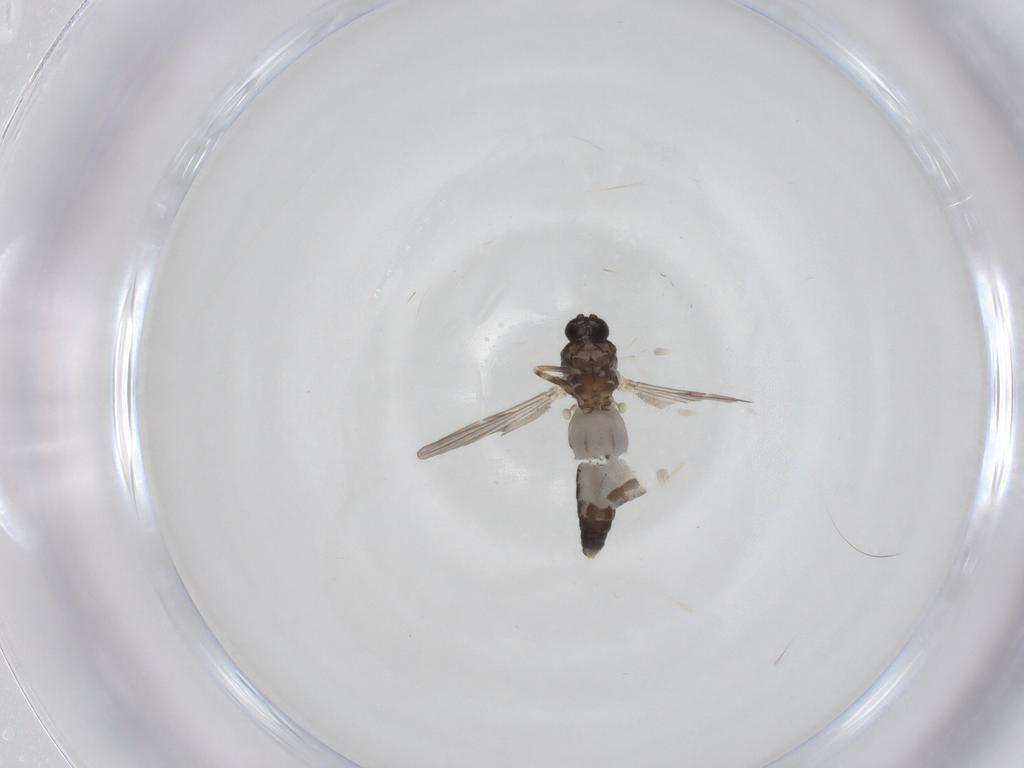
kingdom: Animalia
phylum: Arthropoda
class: Insecta
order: Diptera
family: Ceratopogonidae
